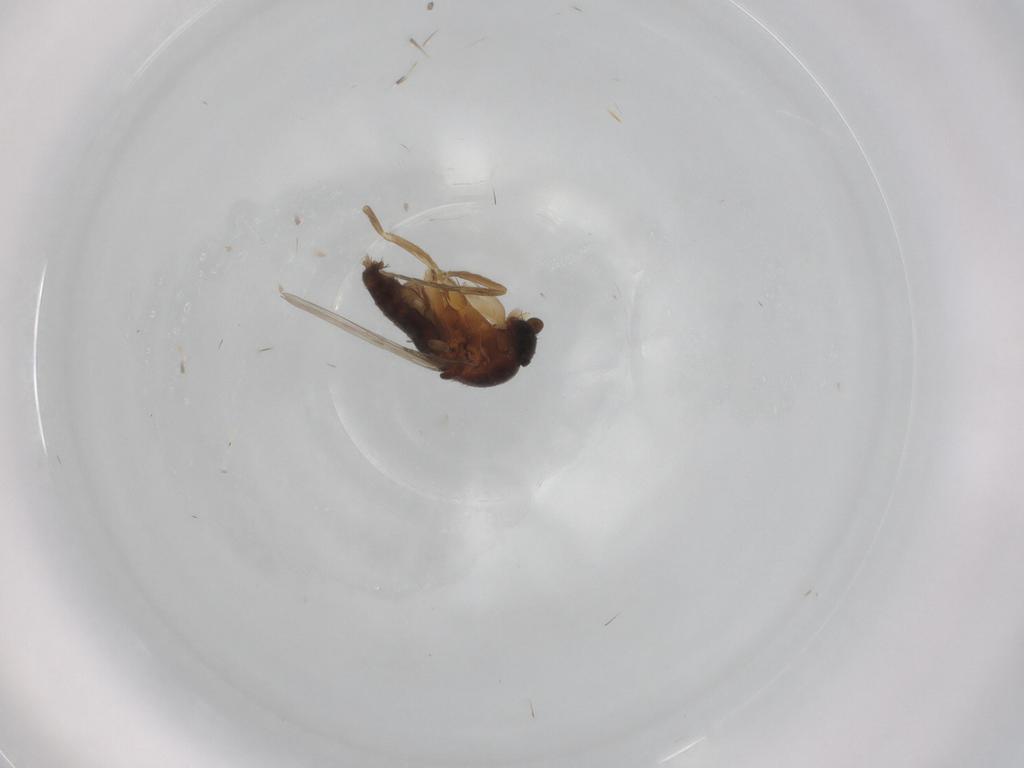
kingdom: Animalia
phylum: Arthropoda
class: Insecta
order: Diptera
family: Phoridae
